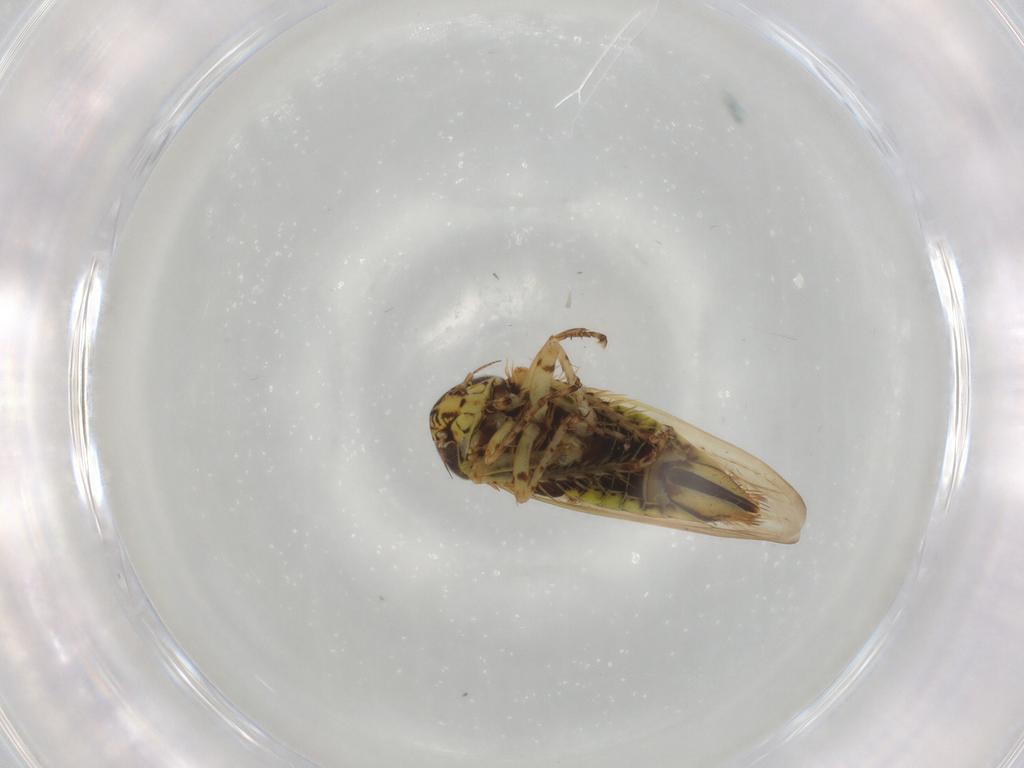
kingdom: Animalia
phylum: Arthropoda
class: Insecta
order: Hemiptera
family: Cicadellidae
